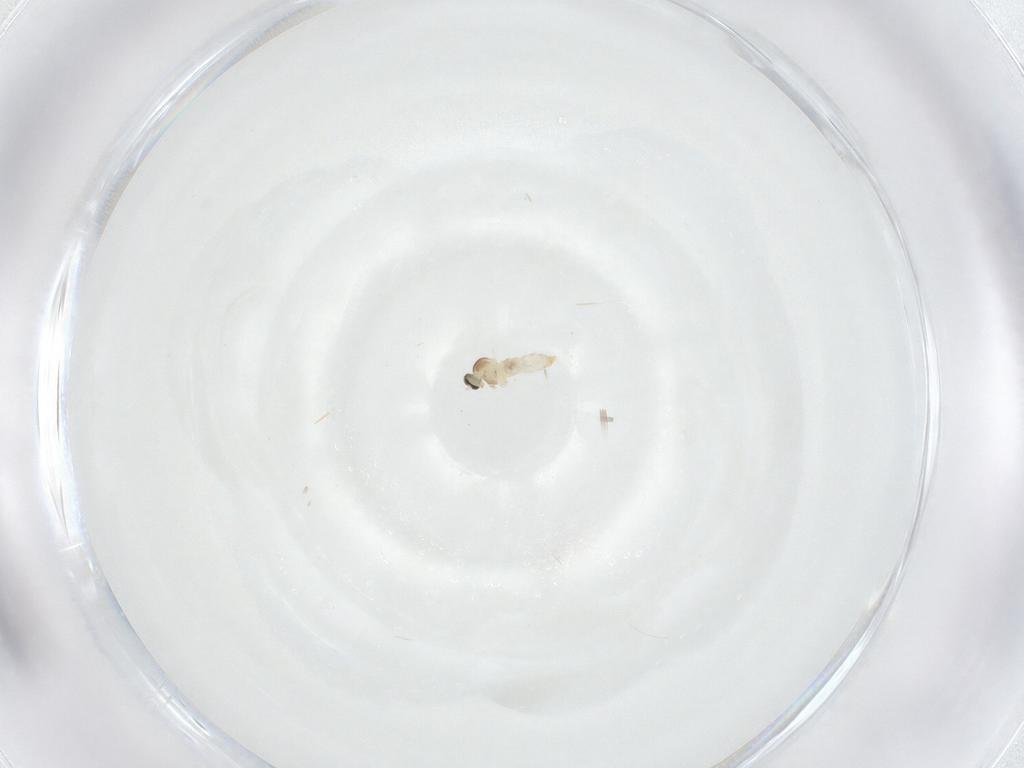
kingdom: Animalia
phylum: Arthropoda
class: Insecta
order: Diptera
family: Cecidomyiidae
